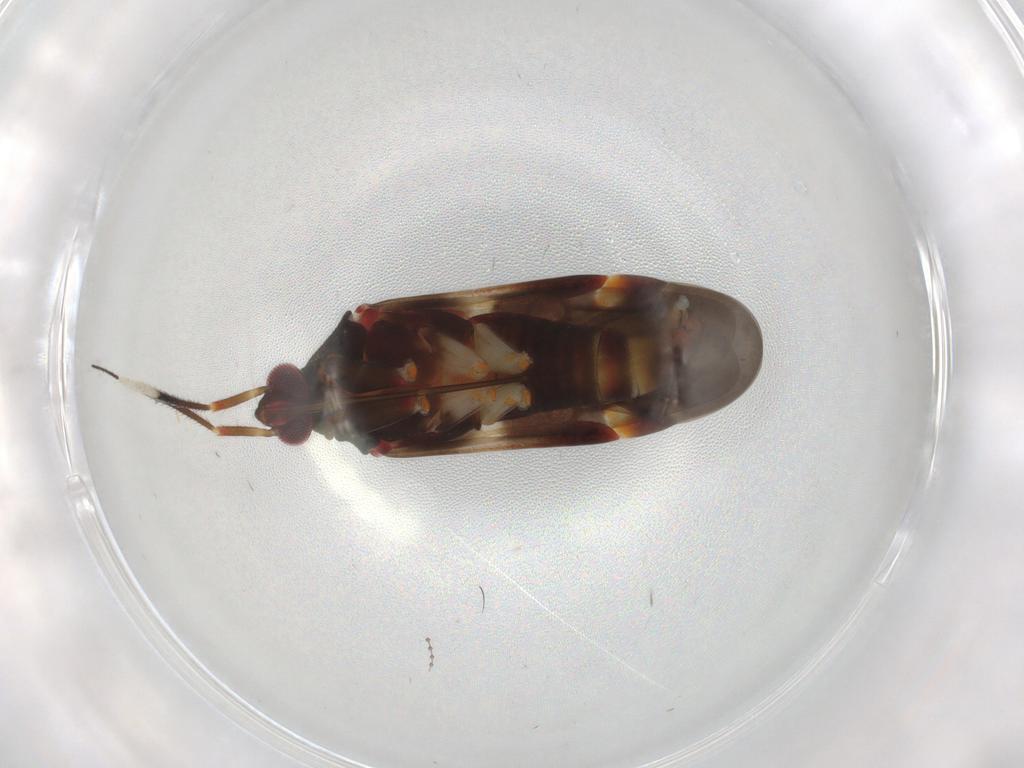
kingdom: Animalia
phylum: Arthropoda
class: Insecta
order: Hemiptera
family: Miridae
